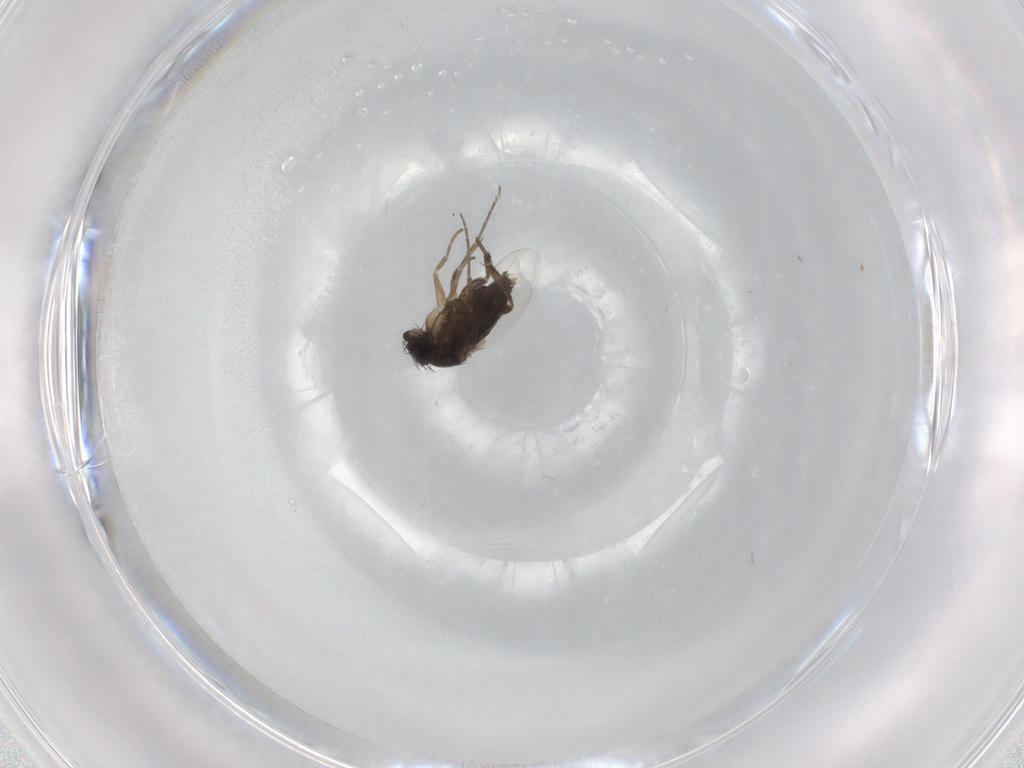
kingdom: Animalia
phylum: Arthropoda
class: Insecta
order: Diptera
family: Phoridae
